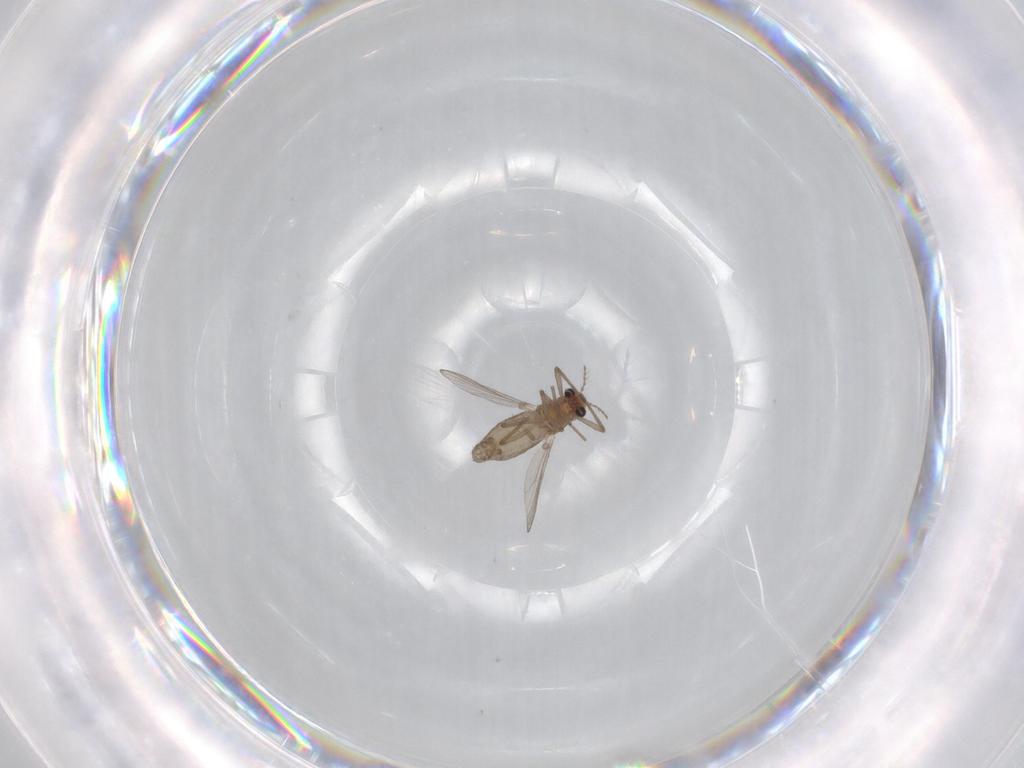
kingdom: Animalia
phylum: Arthropoda
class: Insecta
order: Diptera
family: Chironomidae
